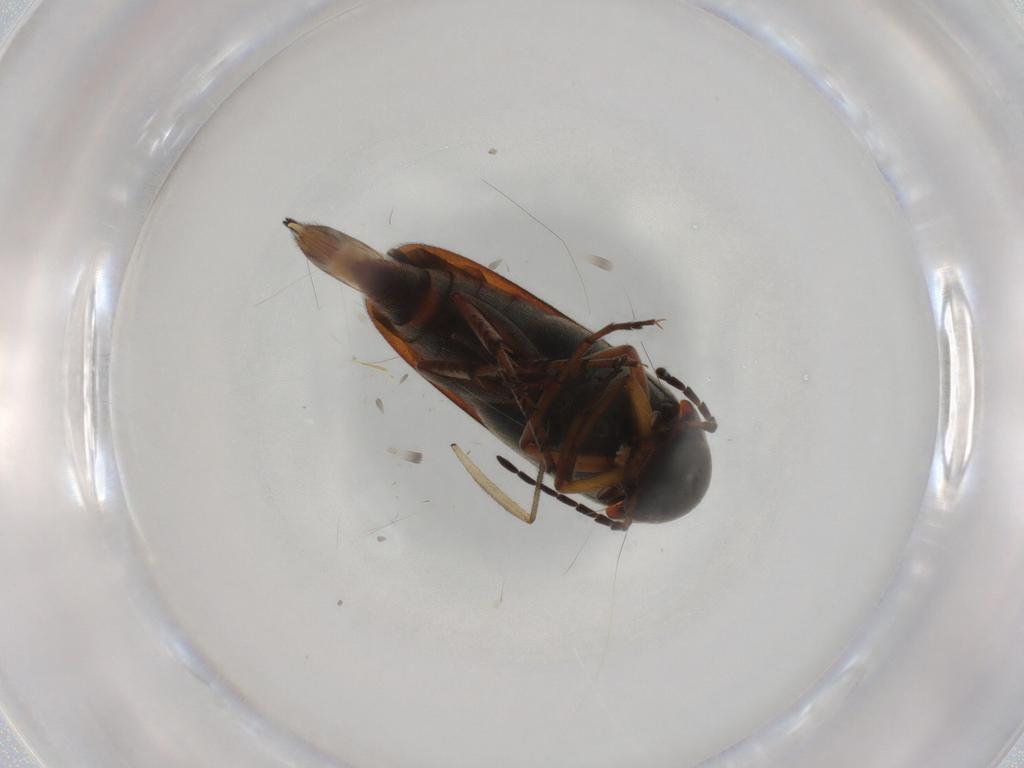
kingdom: Animalia
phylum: Arthropoda
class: Insecta
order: Coleoptera
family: Mordellidae
